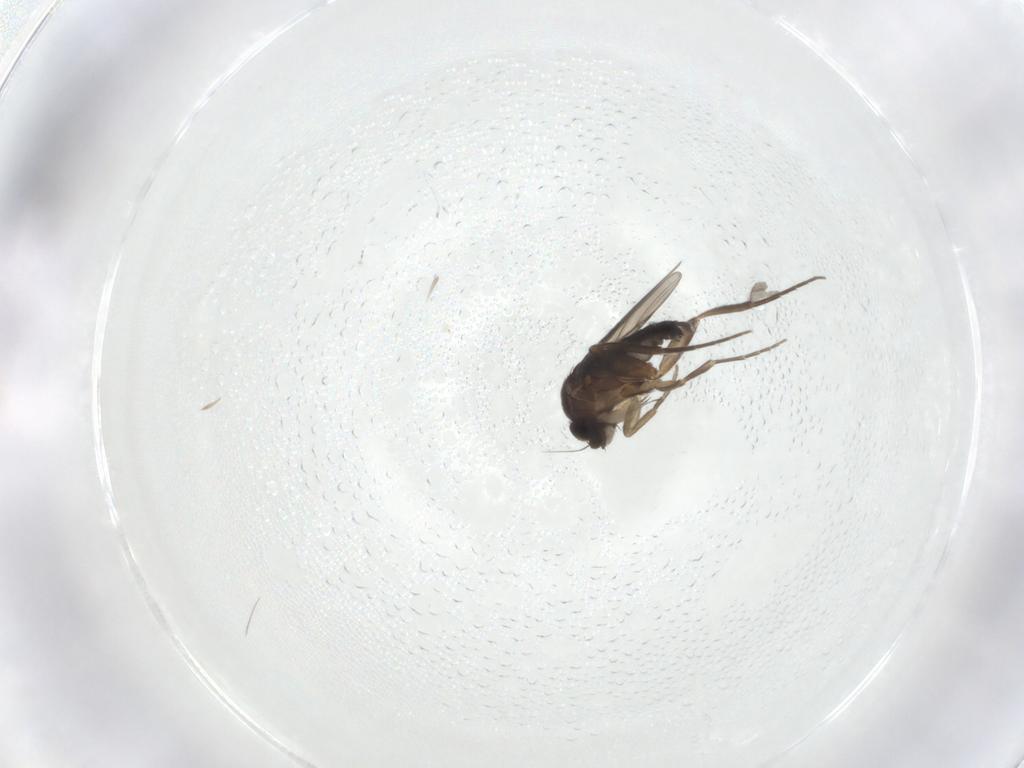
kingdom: Animalia
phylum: Arthropoda
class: Insecta
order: Diptera
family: Phoridae
